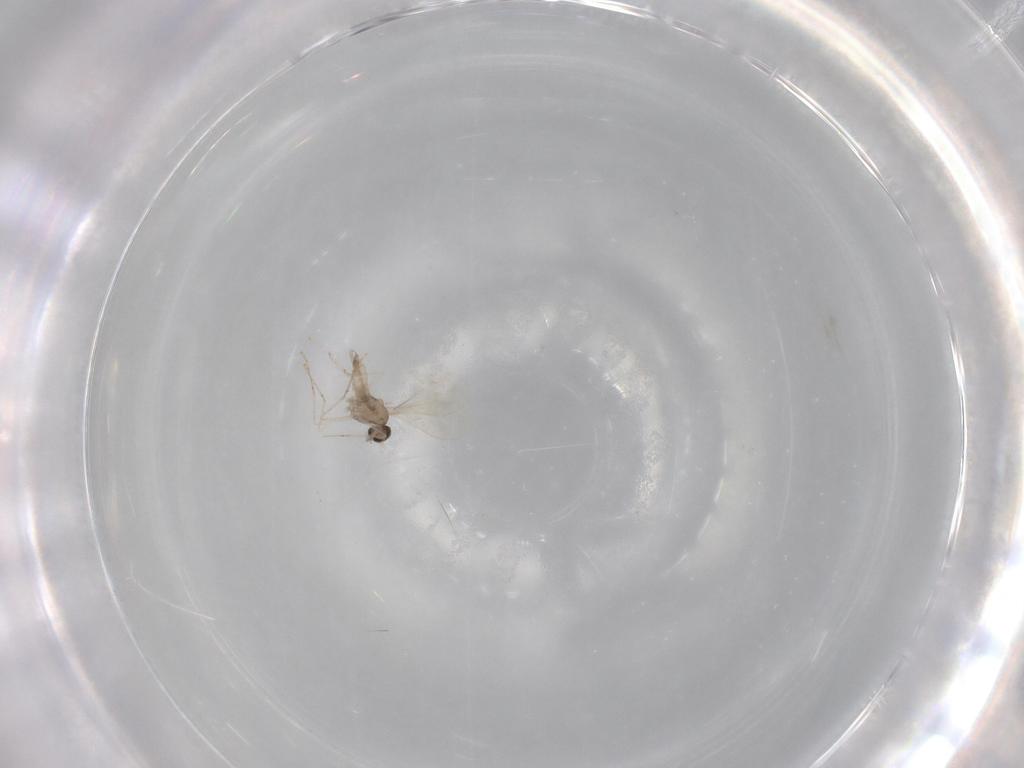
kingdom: Animalia
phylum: Arthropoda
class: Insecta
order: Diptera
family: Cecidomyiidae
